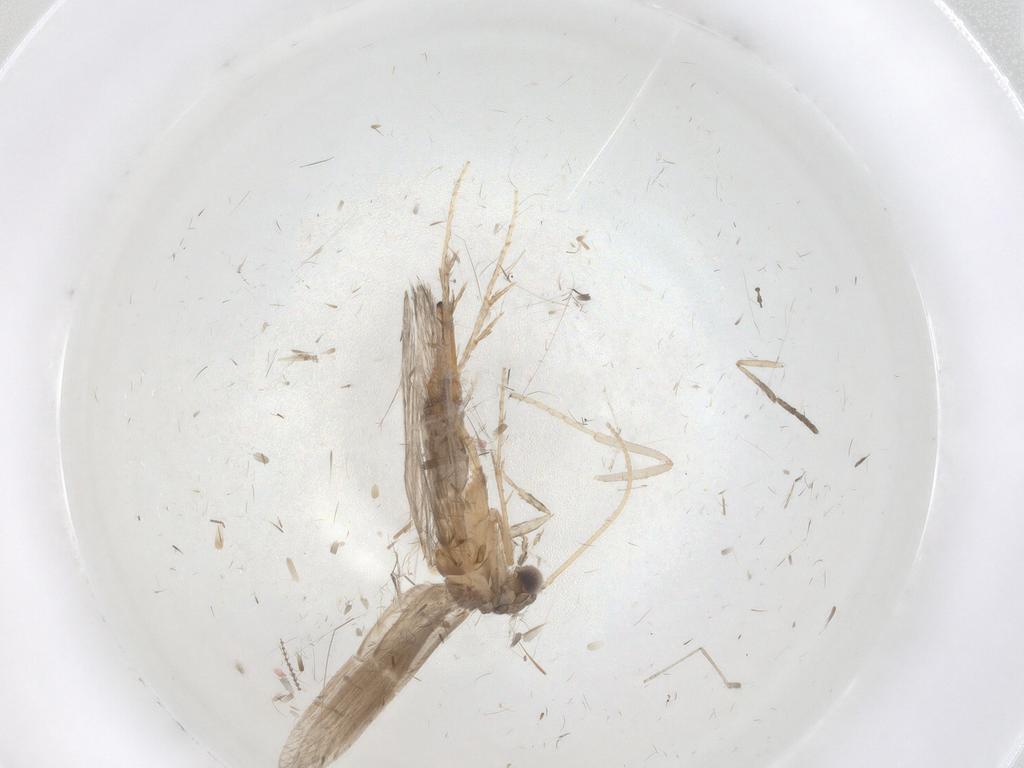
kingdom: Animalia
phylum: Arthropoda
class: Insecta
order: Trichoptera
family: Hydroptilidae
